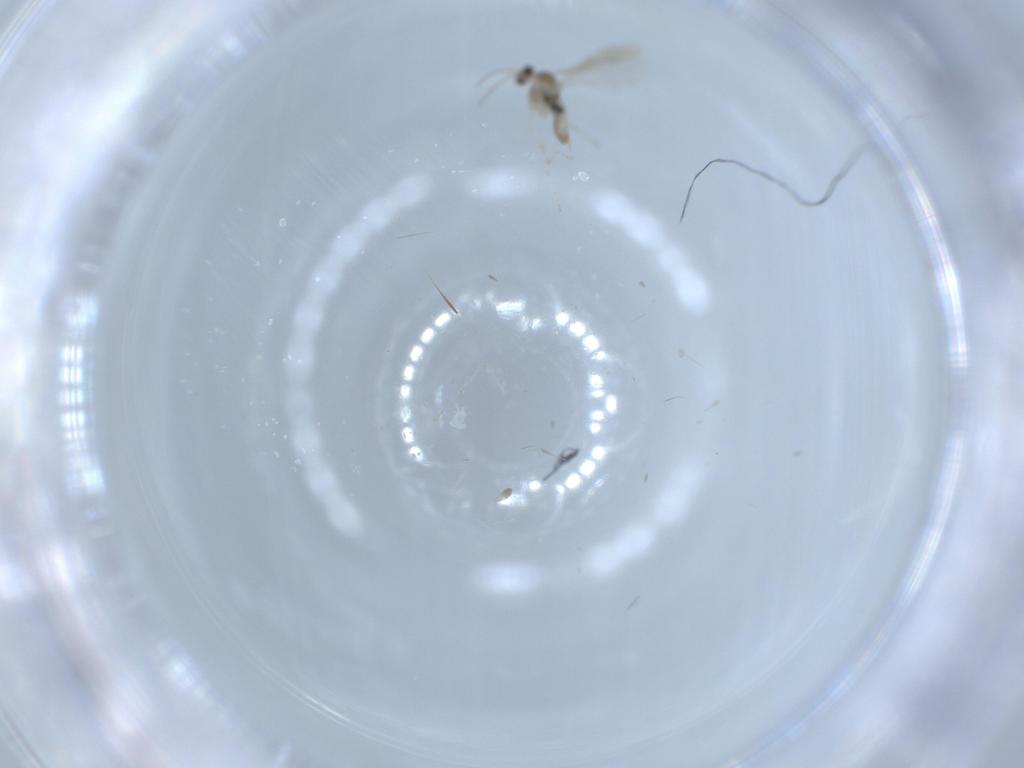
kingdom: Animalia
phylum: Arthropoda
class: Insecta
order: Diptera
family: Cecidomyiidae
